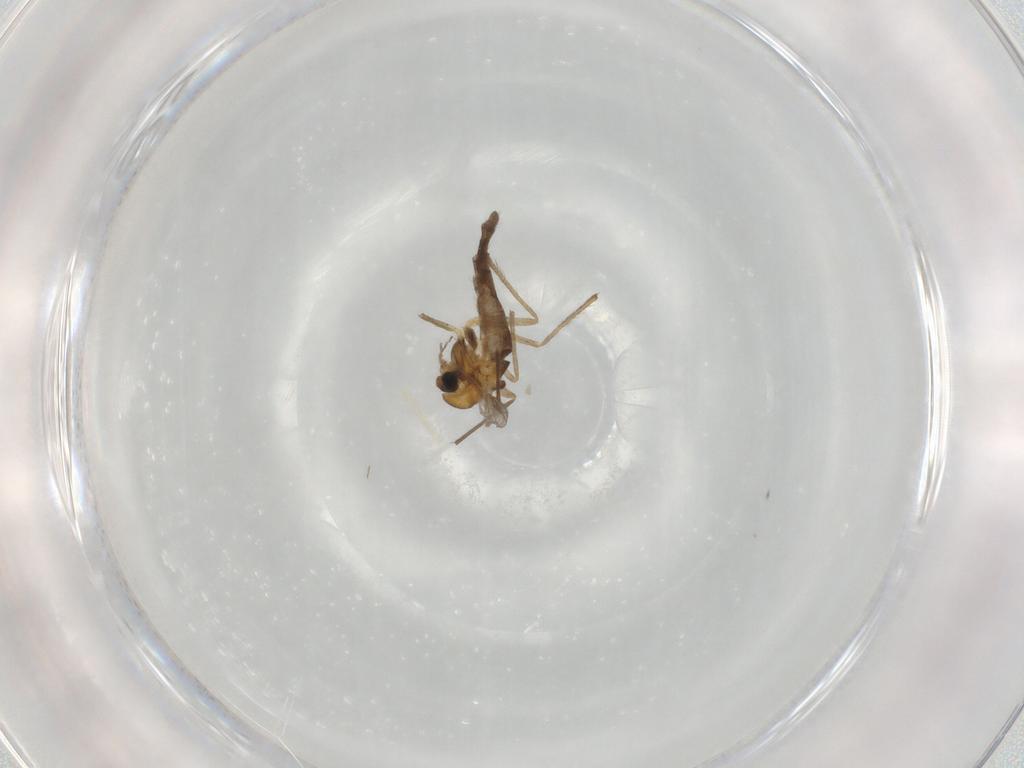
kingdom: Animalia
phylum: Arthropoda
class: Insecta
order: Diptera
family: Chironomidae
